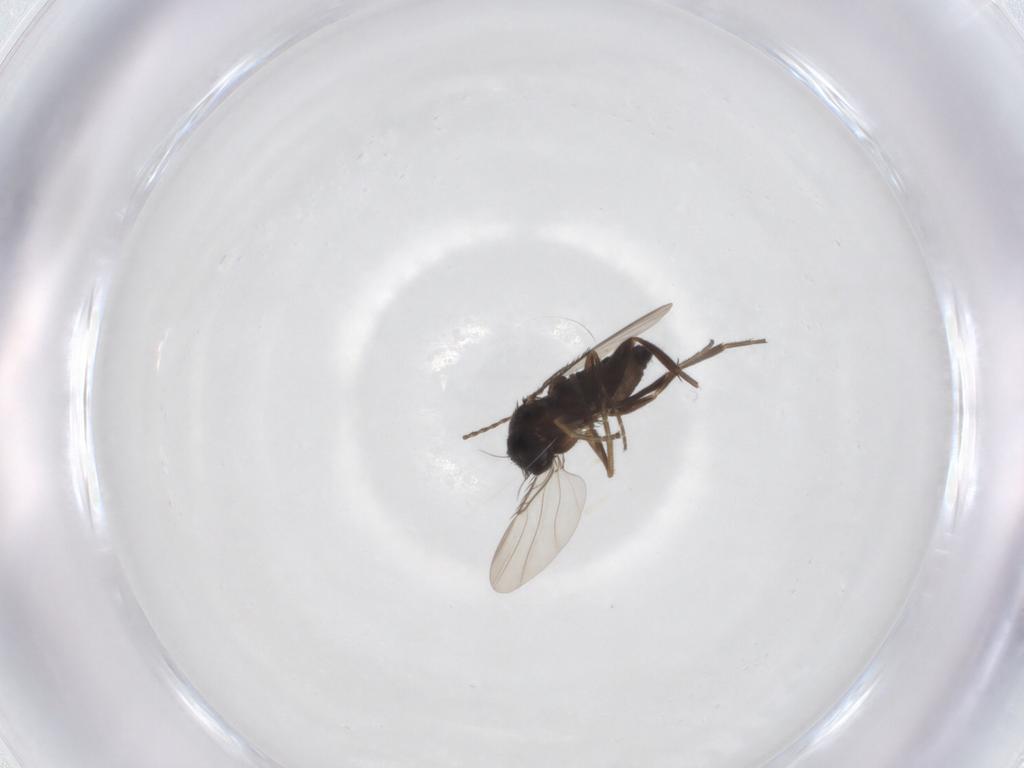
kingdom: Animalia
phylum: Arthropoda
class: Insecta
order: Diptera
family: Phoridae
